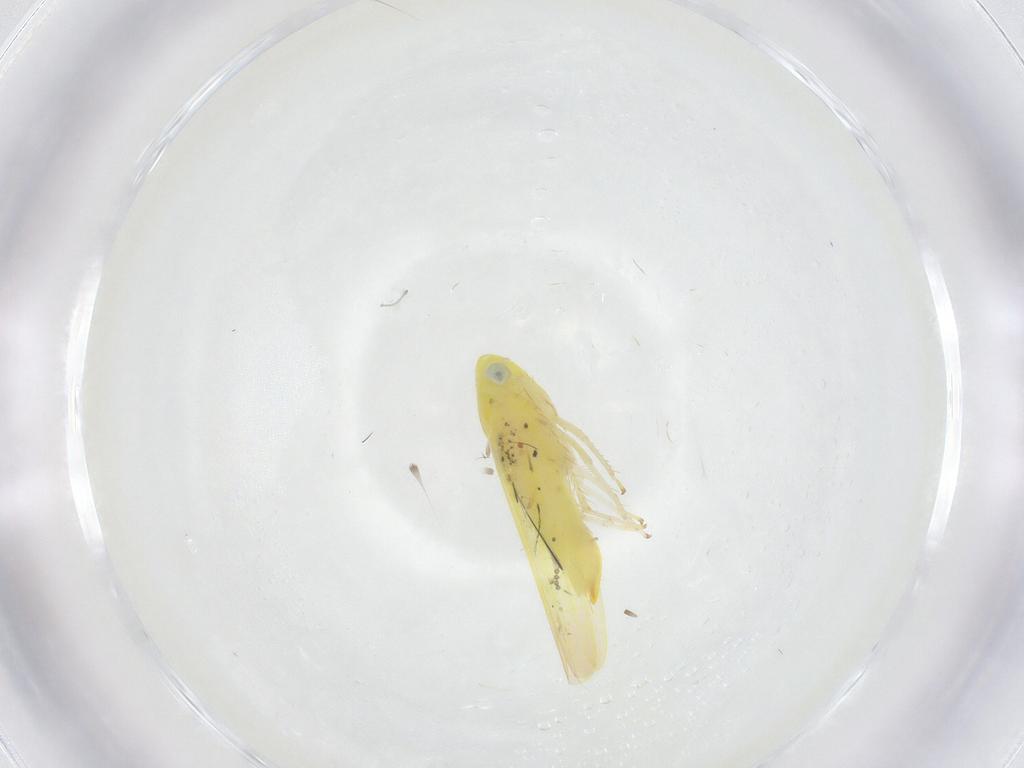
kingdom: Animalia
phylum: Arthropoda
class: Insecta
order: Hemiptera
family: Cicadellidae
